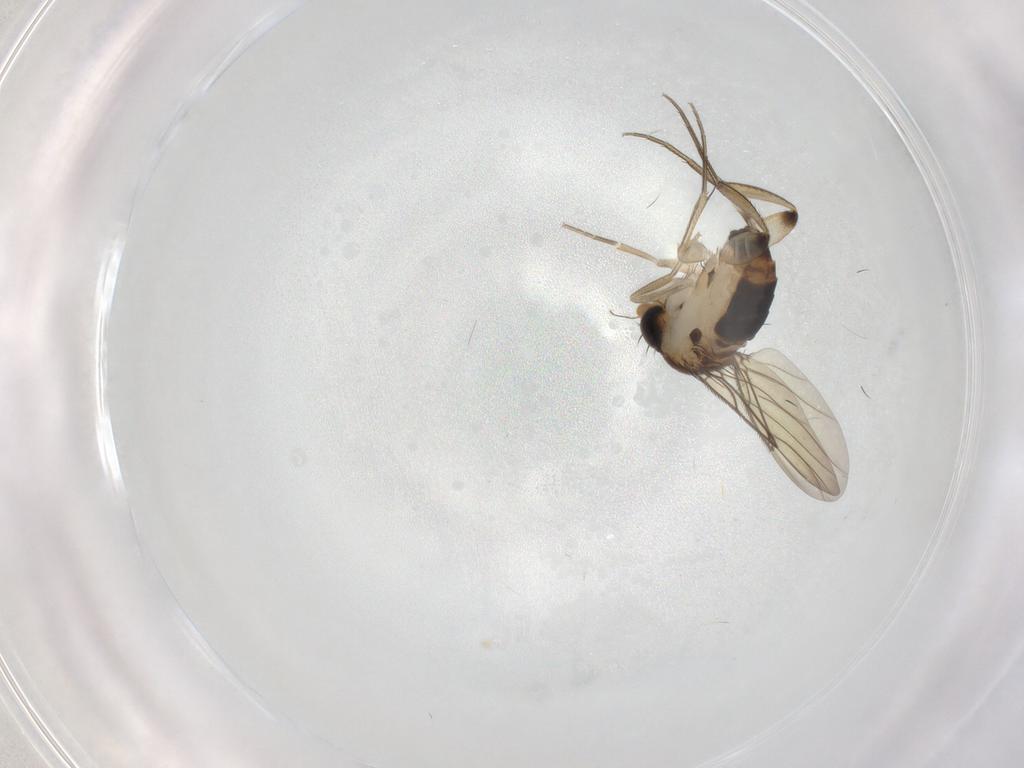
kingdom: Animalia
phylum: Arthropoda
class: Insecta
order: Diptera
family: Phoridae
